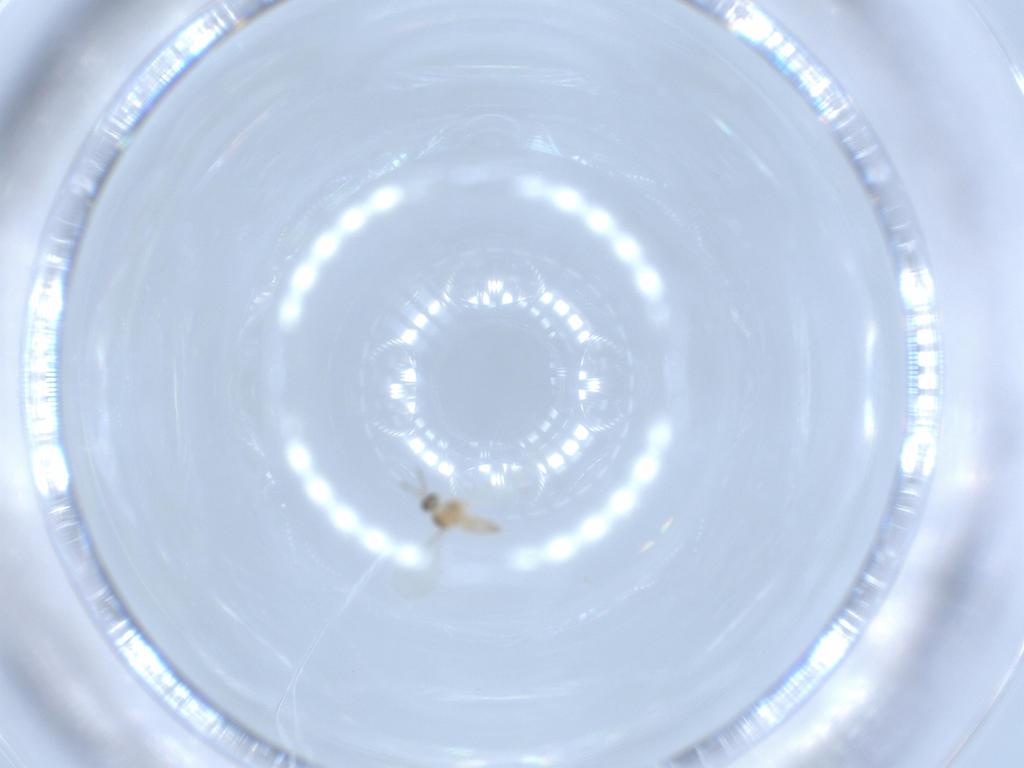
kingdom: Animalia
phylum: Arthropoda
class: Insecta
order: Diptera
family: Cecidomyiidae
